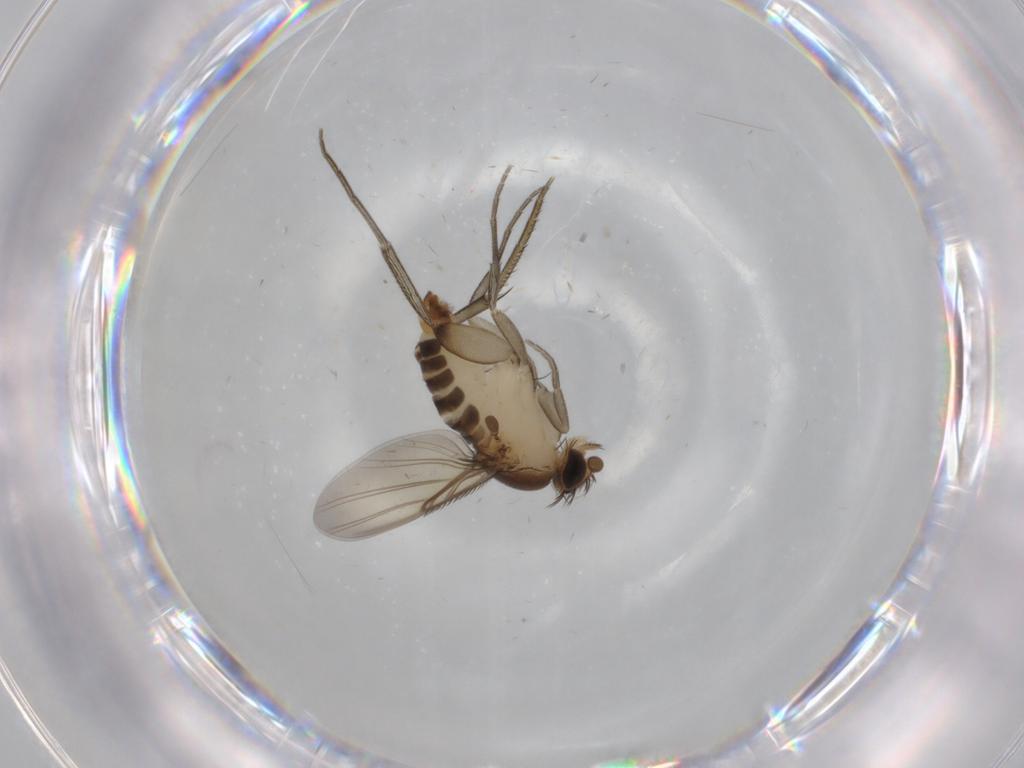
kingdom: Animalia
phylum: Arthropoda
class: Insecta
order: Diptera
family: Phoridae
